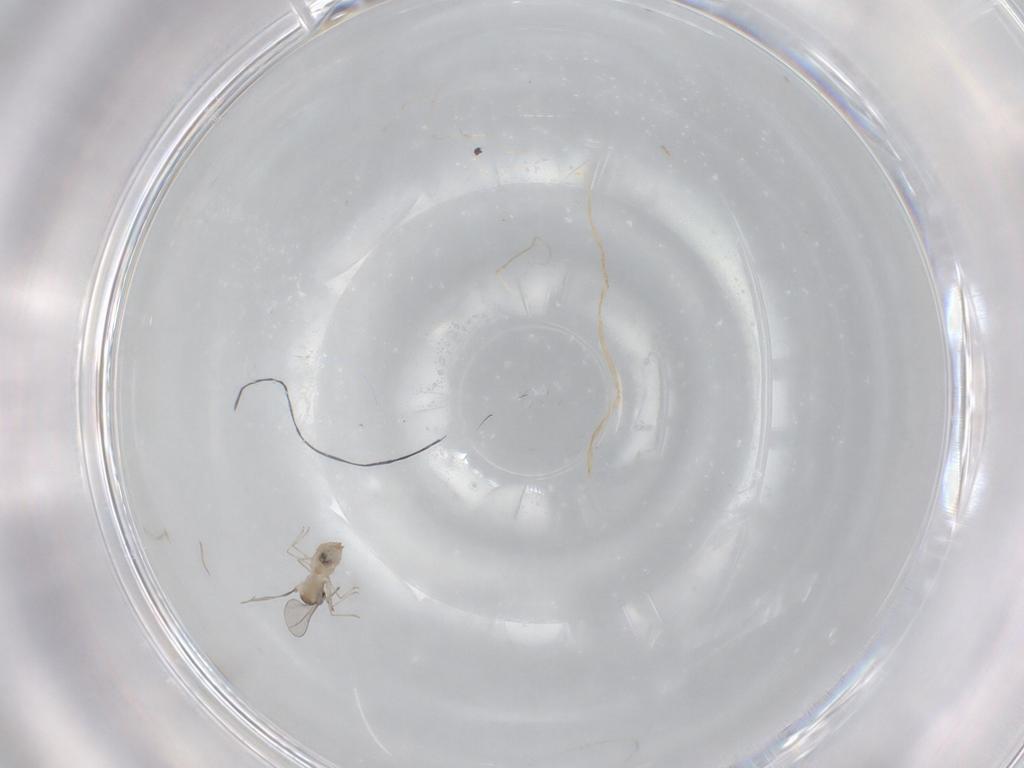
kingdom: Animalia
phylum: Arthropoda
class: Insecta
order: Diptera
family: Cecidomyiidae
